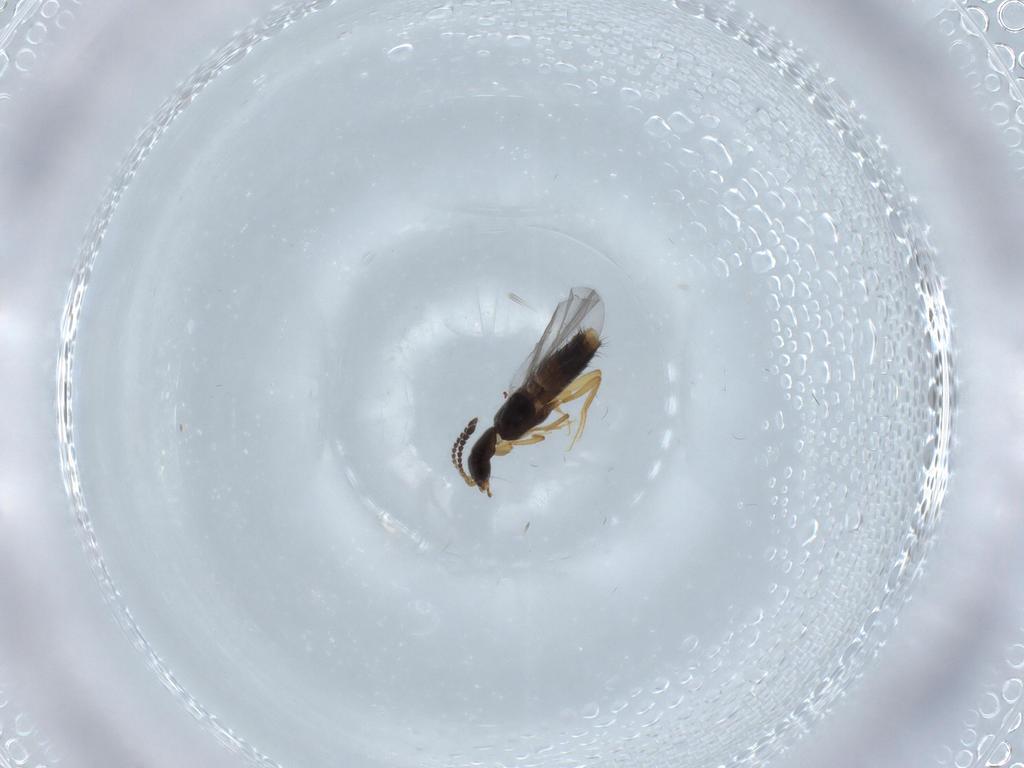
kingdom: Animalia
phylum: Arthropoda
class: Insecta
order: Coleoptera
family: Staphylinidae
